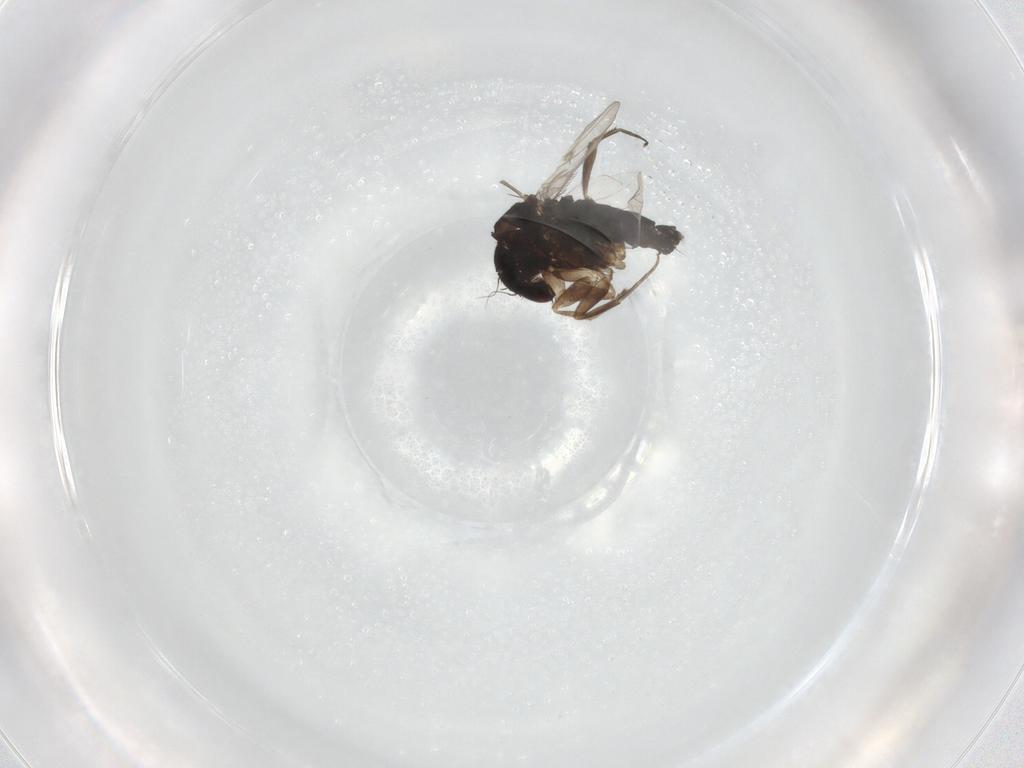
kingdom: Animalia
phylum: Arthropoda
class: Insecta
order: Diptera
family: Phoridae
